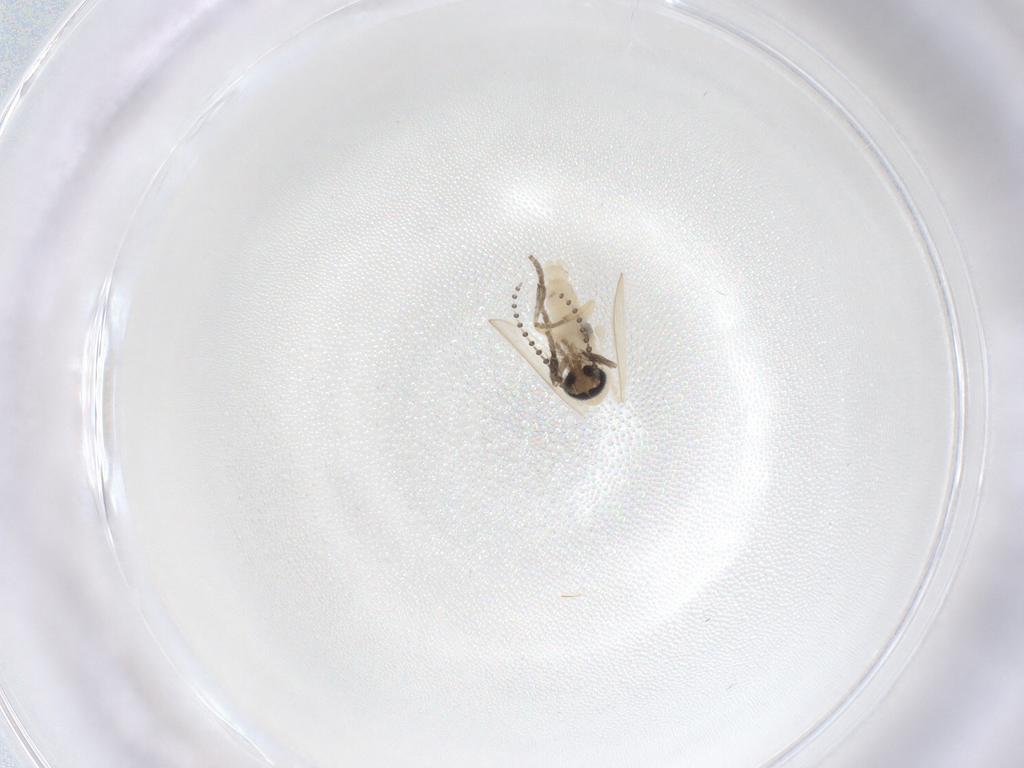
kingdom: Animalia
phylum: Arthropoda
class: Insecta
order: Diptera
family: Psychodidae
